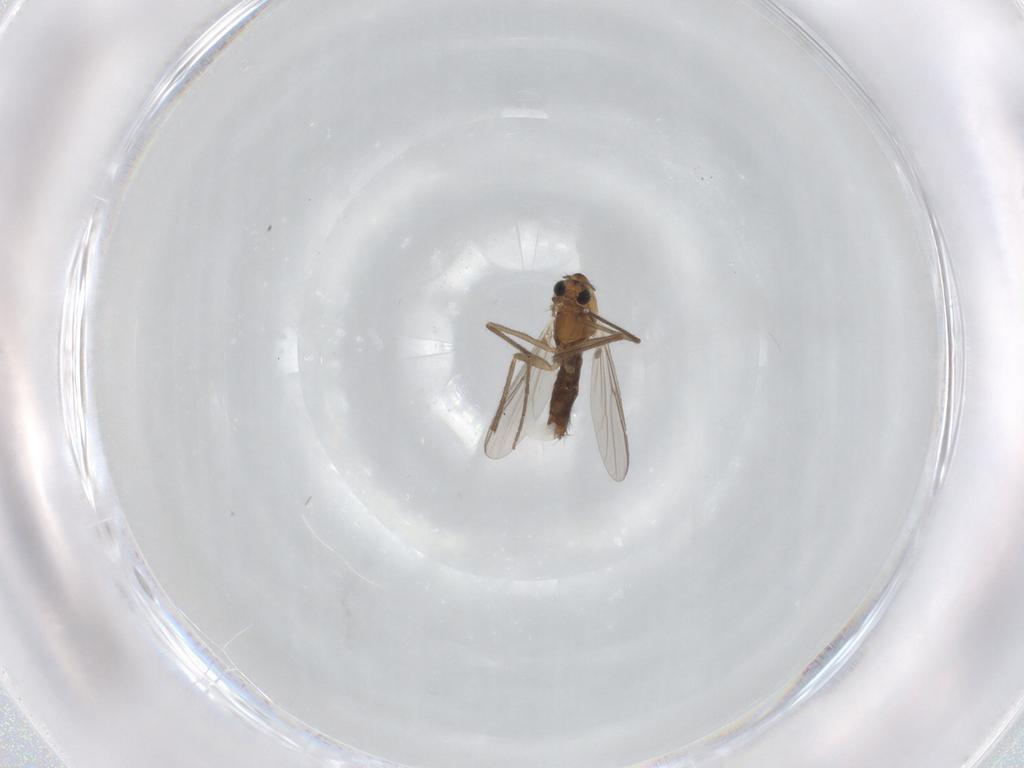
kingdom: Animalia
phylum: Arthropoda
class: Insecta
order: Diptera
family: Chironomidae
